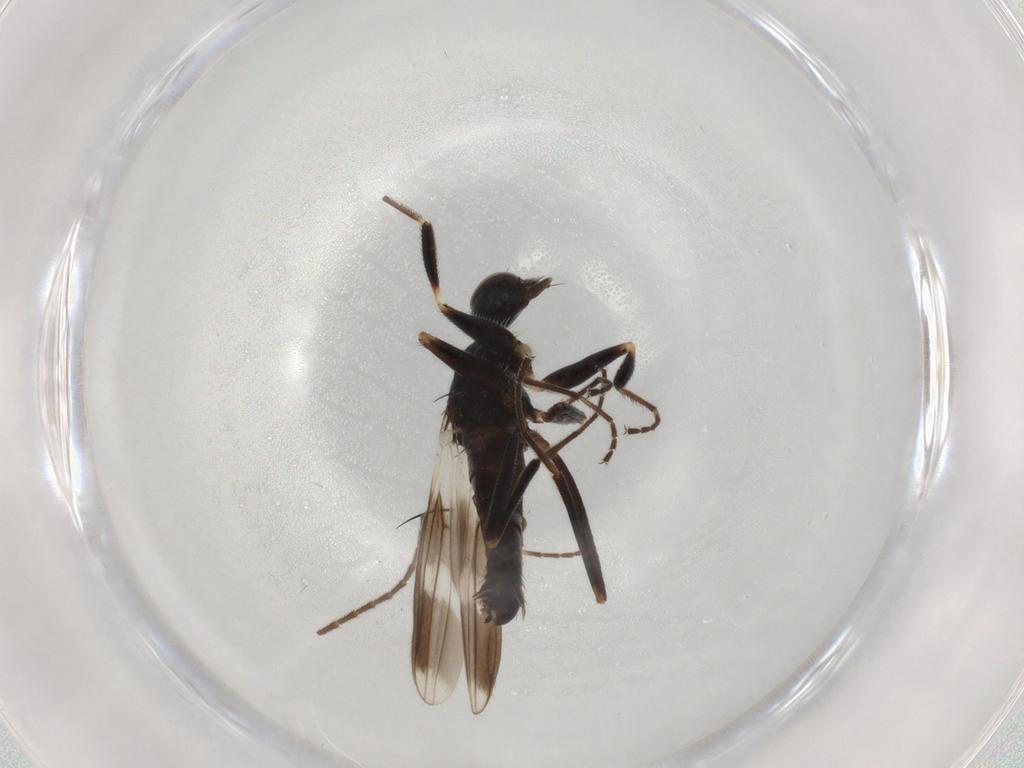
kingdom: Animalia
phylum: Arthropoda
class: Insecta
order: Diptera
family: Hybotidae
